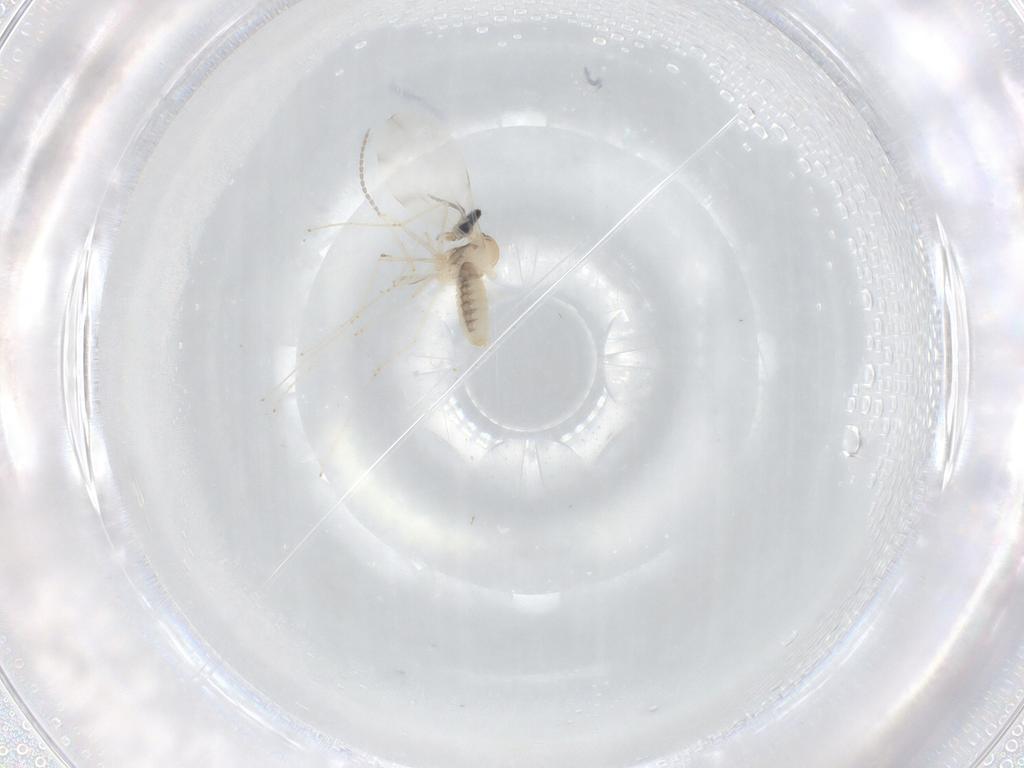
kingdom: Animalia
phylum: Arthropoda
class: Insecta
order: Diptera
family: Cecidomyiidae
